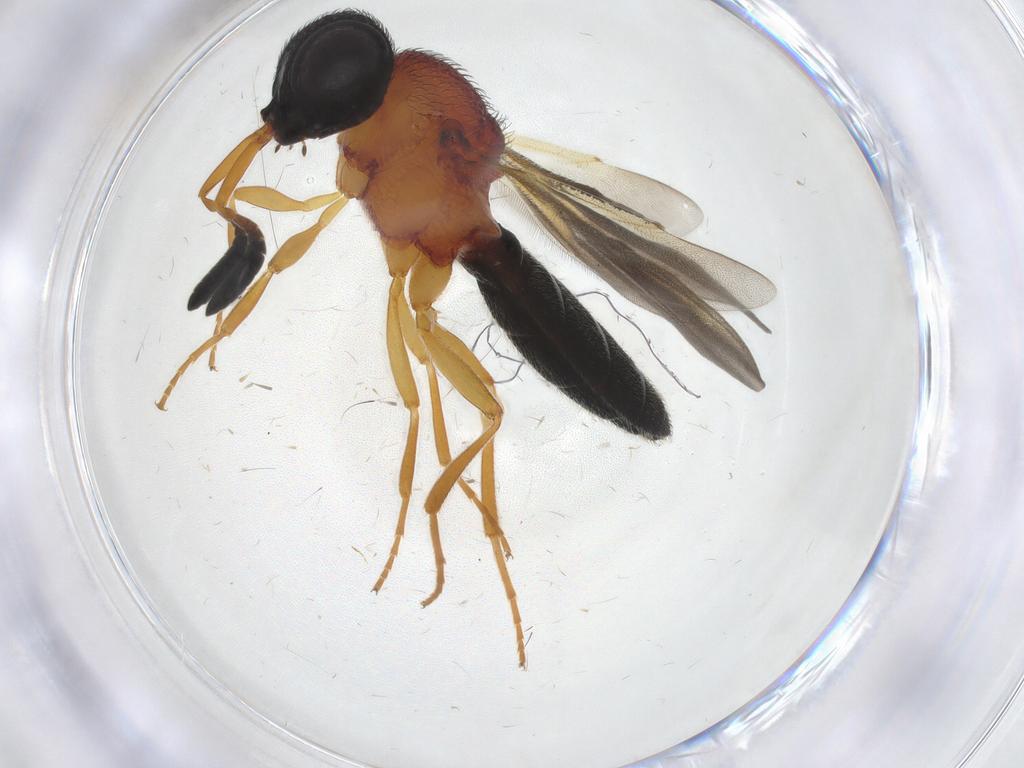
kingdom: Animalia
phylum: Arthropoda
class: Insecta
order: Hymenoptera
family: Scelionidae
